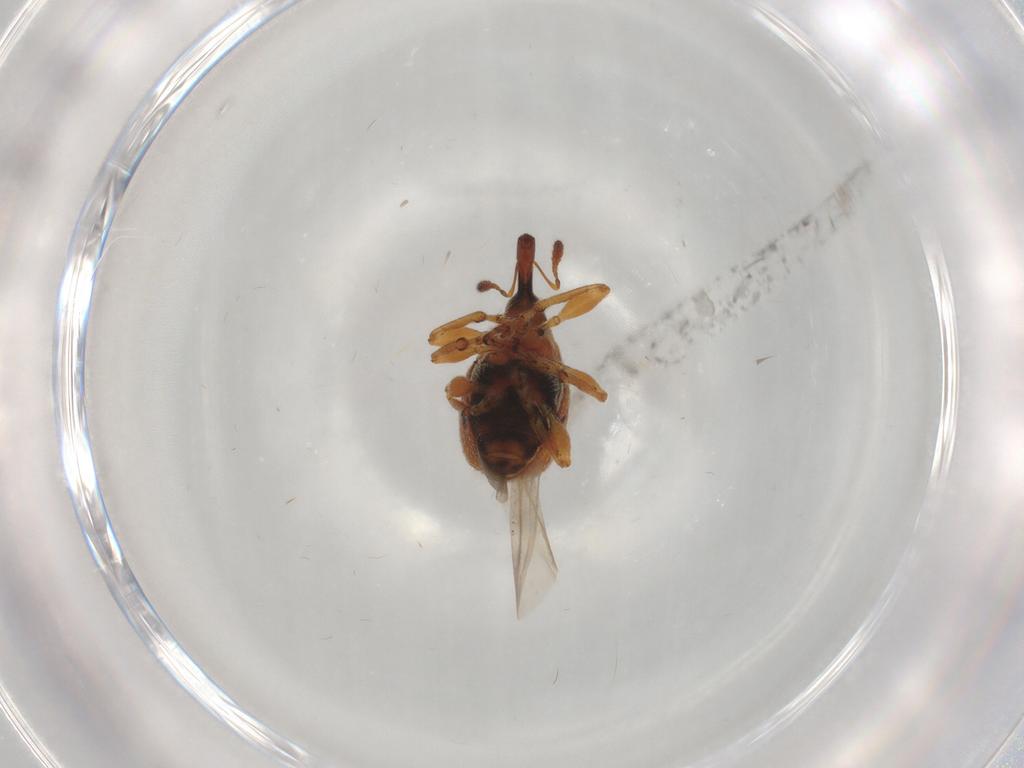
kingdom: Animalia
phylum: Arthropoda
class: Insecta
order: Coleoptera
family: Brentidae
